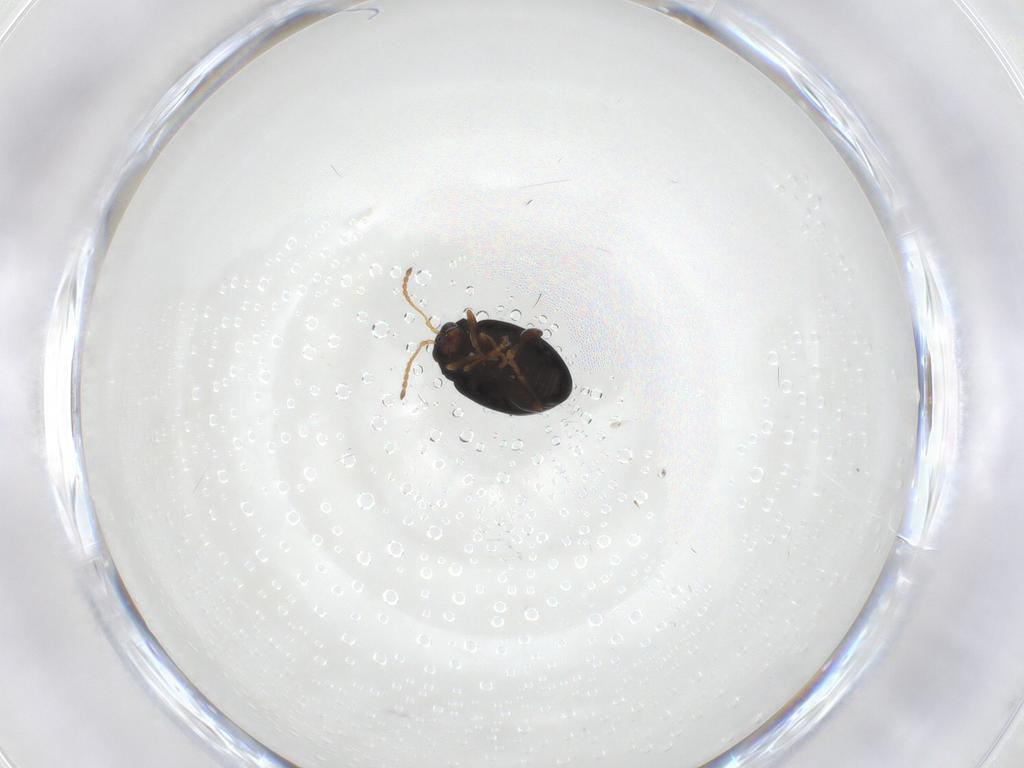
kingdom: Animalia
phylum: Arthropoda
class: Insecta
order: Coleoptera
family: Chrysomelidae
